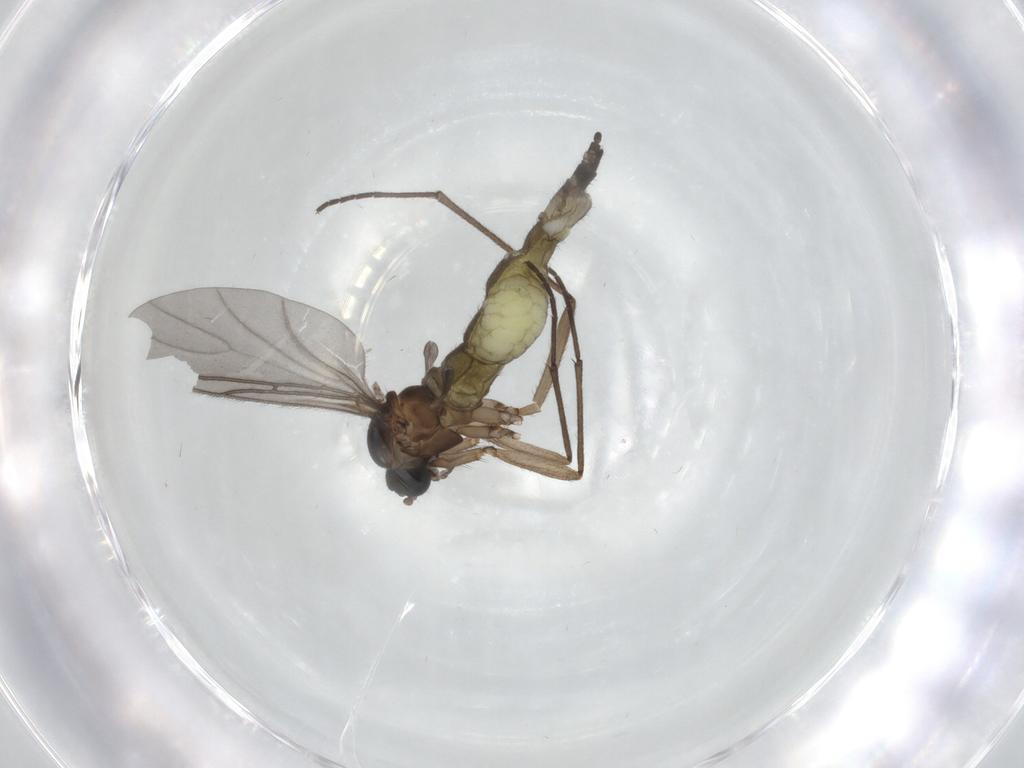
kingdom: Animalia
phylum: Arthropoda
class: Insecta
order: Diptera
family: Sciaridae
